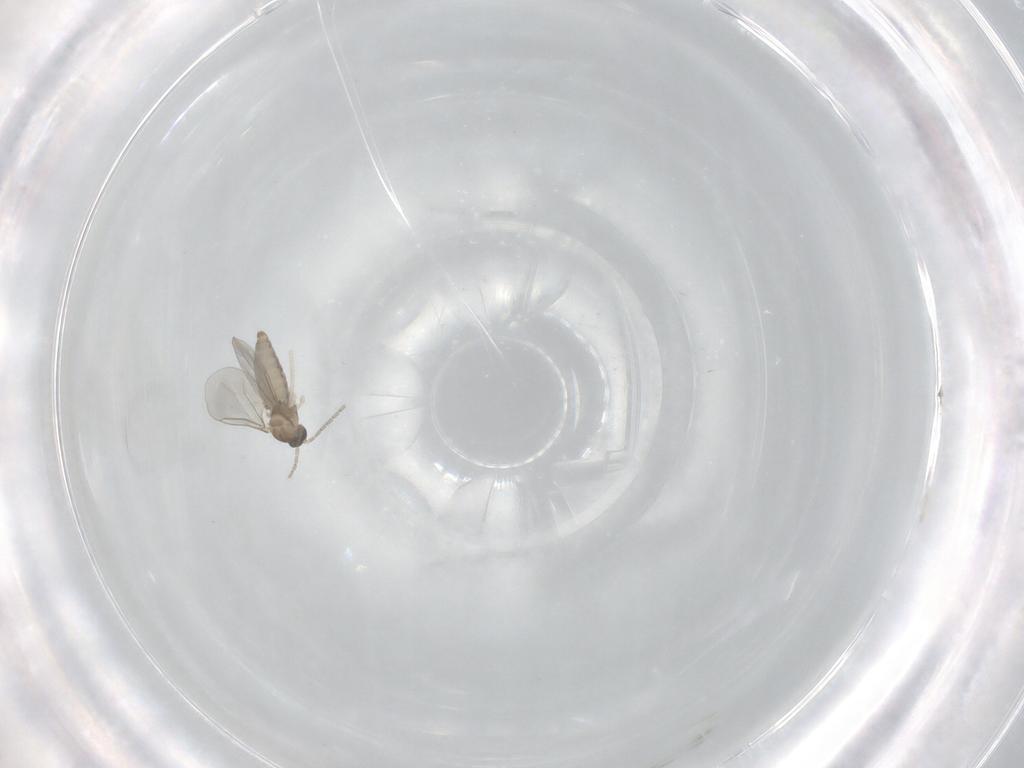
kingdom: Animalia
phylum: Arthropoda
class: Insecta
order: Diptera
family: Cecidomyiidae
